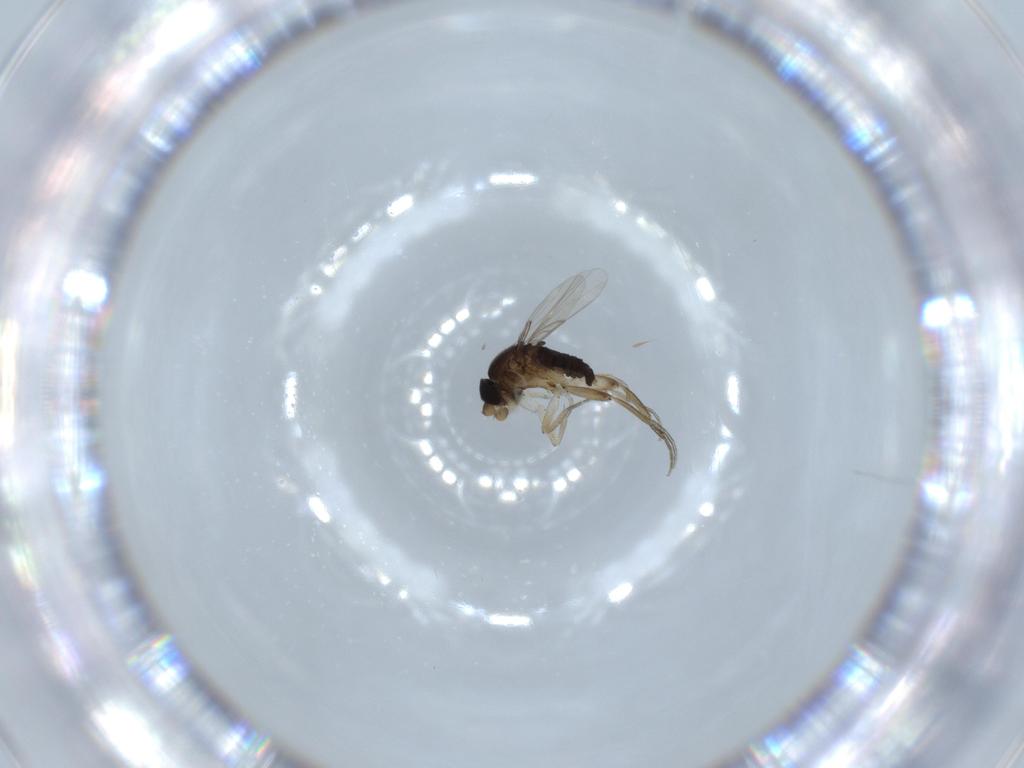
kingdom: Animalia
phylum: Arthropoda
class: Insecta
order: Diptera
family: Phoridae
